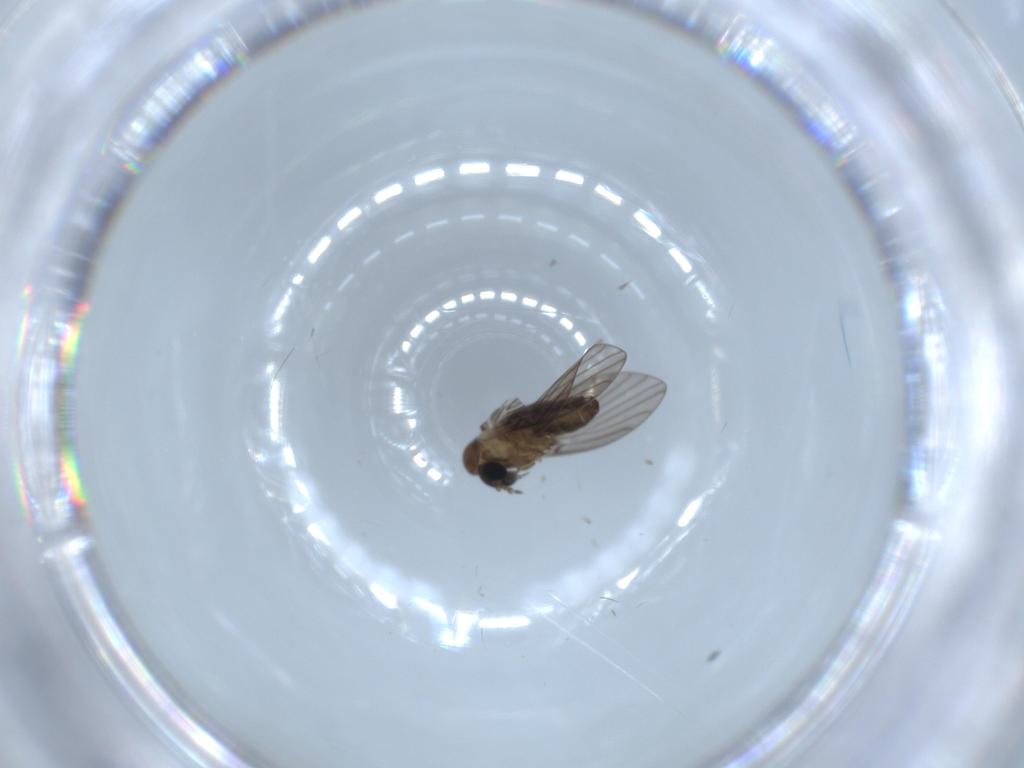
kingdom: Animalia
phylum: Arthropoda
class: Insecta
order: Diptera
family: Psychodidae
